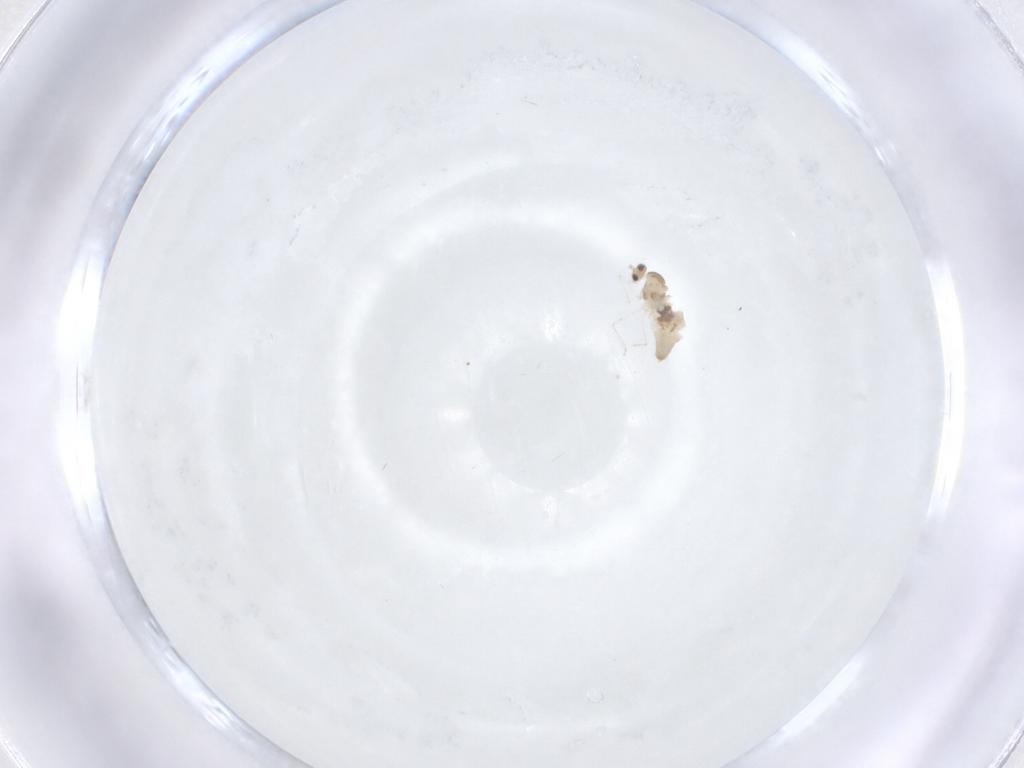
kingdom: Animalia
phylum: Arthropoda
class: Insecta
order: Diptera
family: Cecidomyiidae
